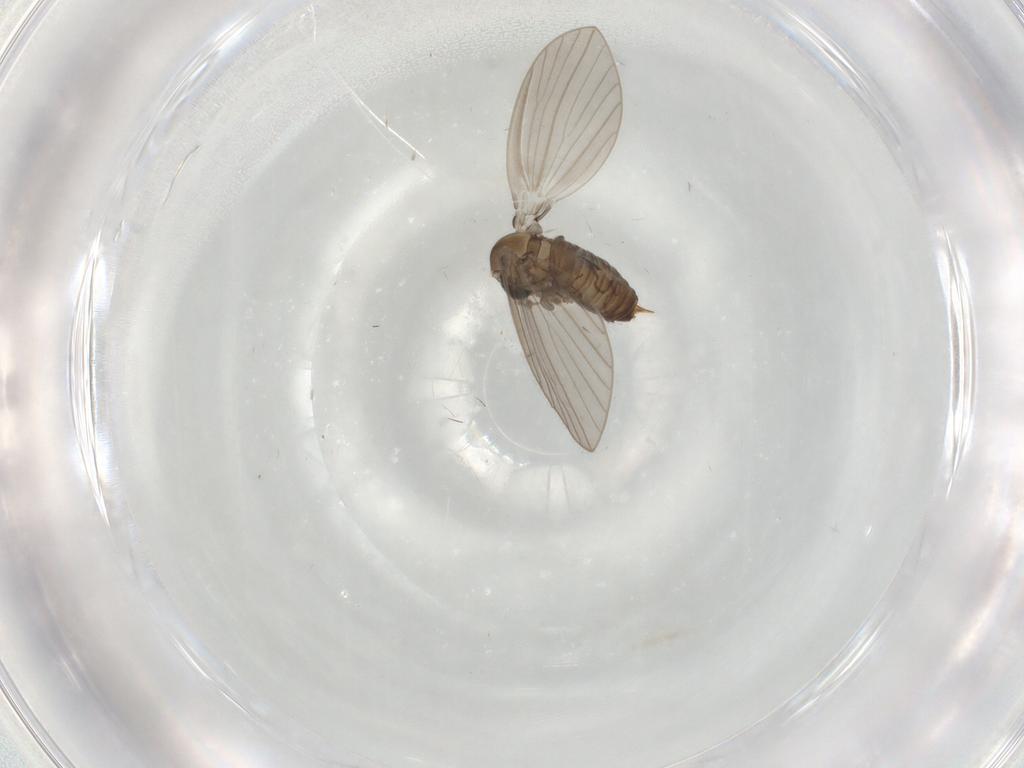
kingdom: Animalia
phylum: Arthropoda
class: Insecta
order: Diptera
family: Psychodidae
